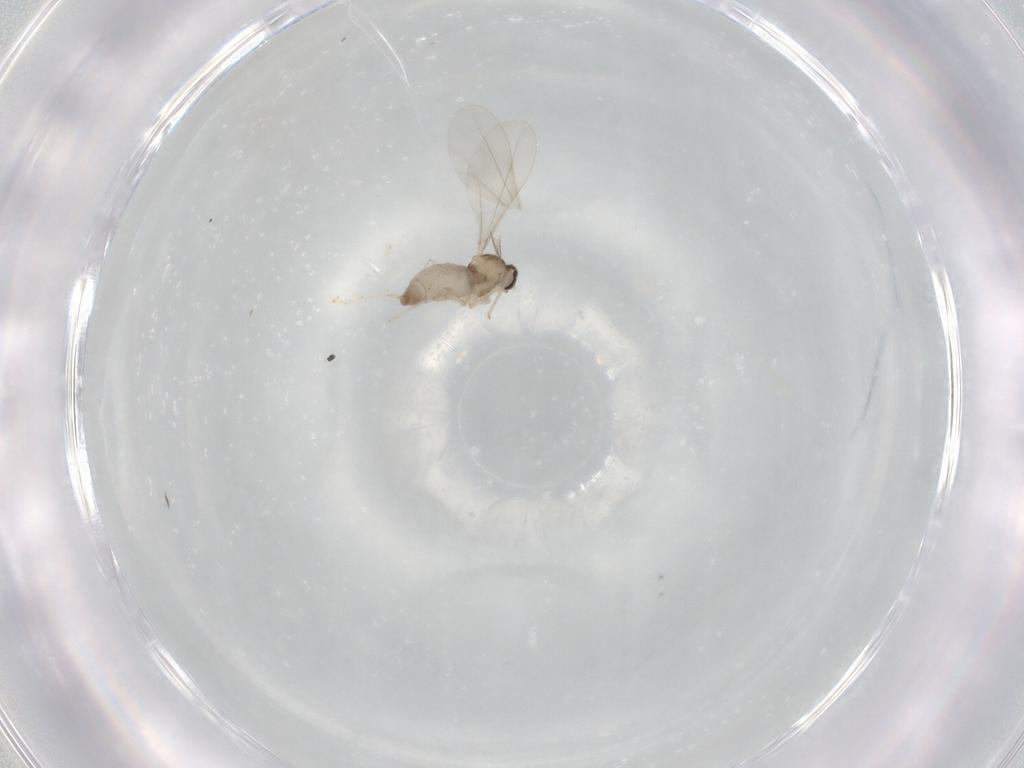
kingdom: Animalia
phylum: Arthropoda
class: Insecta
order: Diptera
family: Cecidomyiidae
